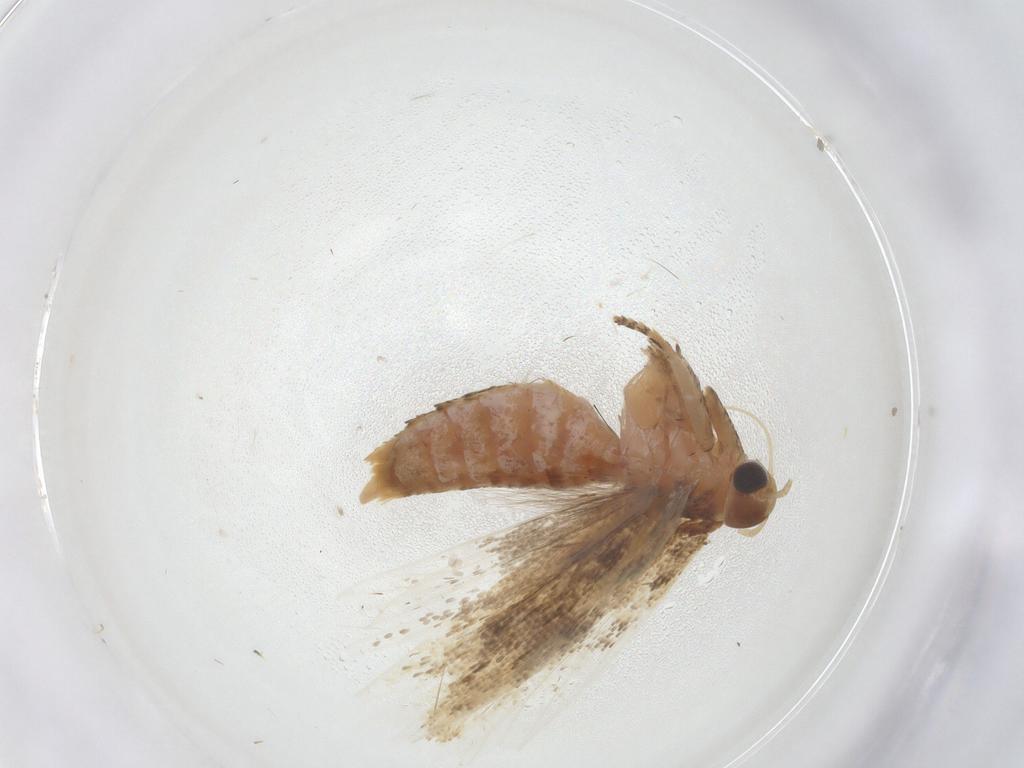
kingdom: Animalia
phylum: Arthropoda
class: Insecta
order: Lepidoptera
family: Gelechiidae
